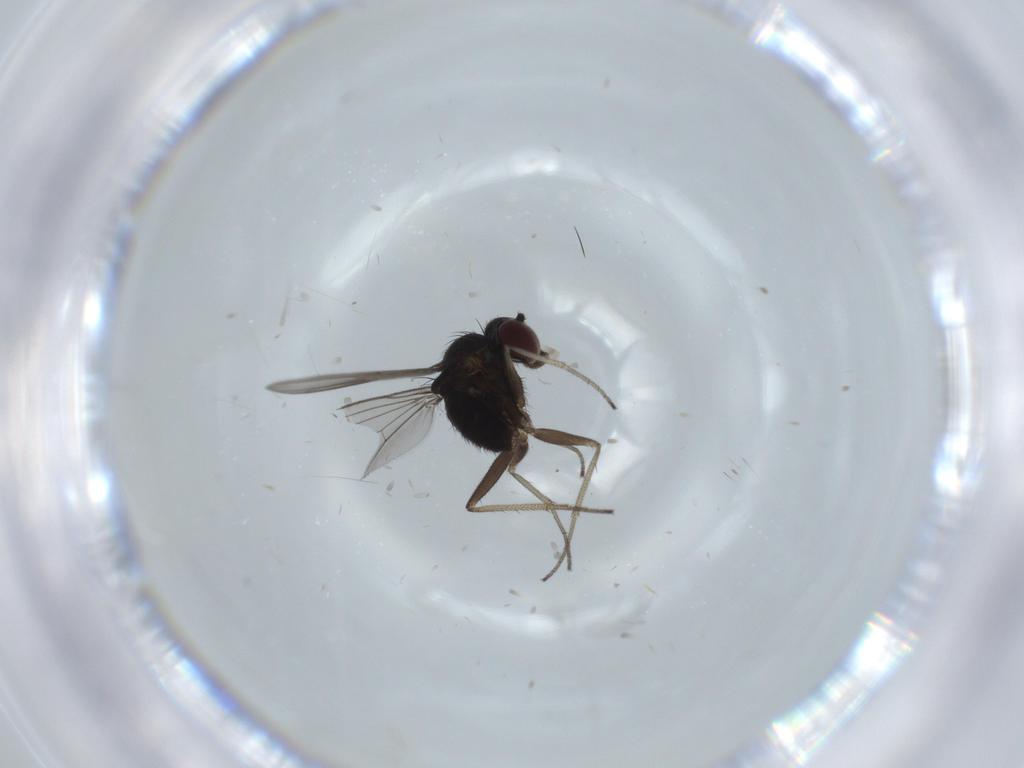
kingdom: Animalia
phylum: Arthropoda
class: Insecta
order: Diptera
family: Dolichopodidae
